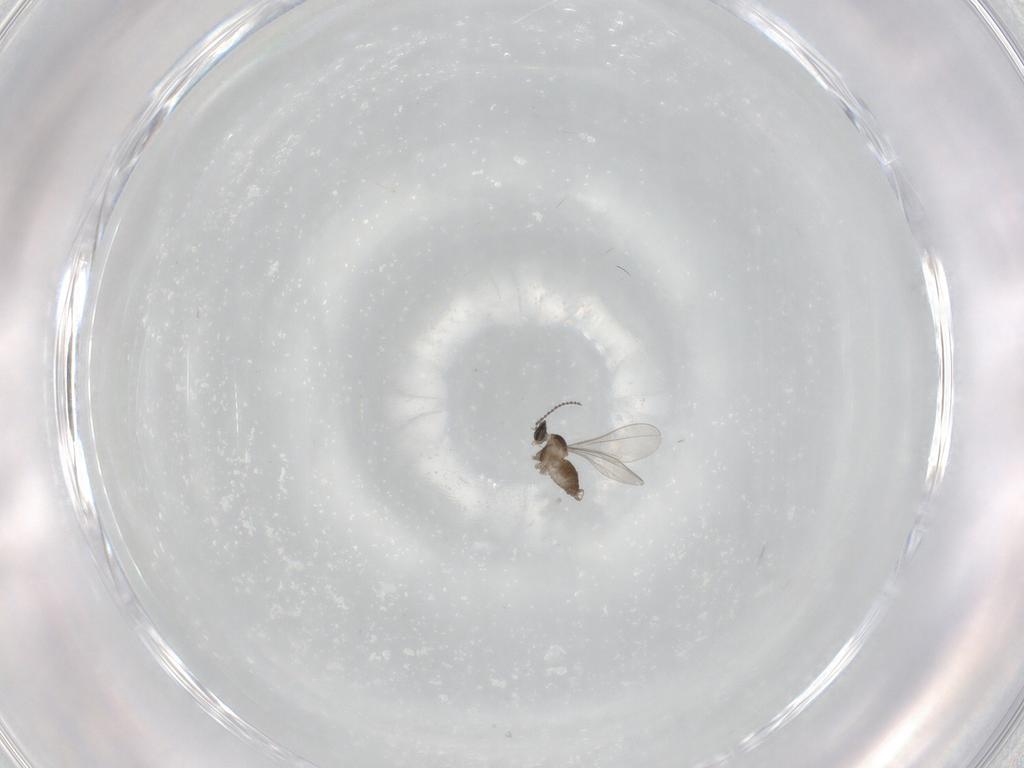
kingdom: Animalia
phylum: Arthropoda
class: Insecta
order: Diptera
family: Cecidomyiidae
